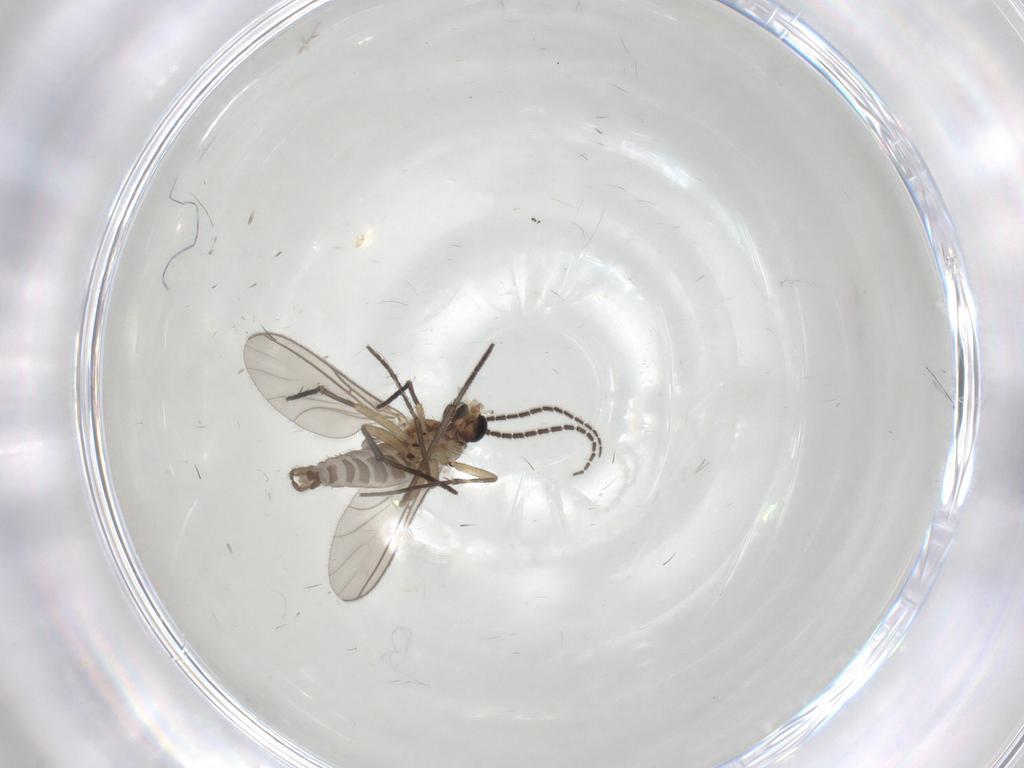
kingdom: Animalia
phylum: Arthropoda
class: Insecta
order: Diptera
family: Ceratopogonidae
